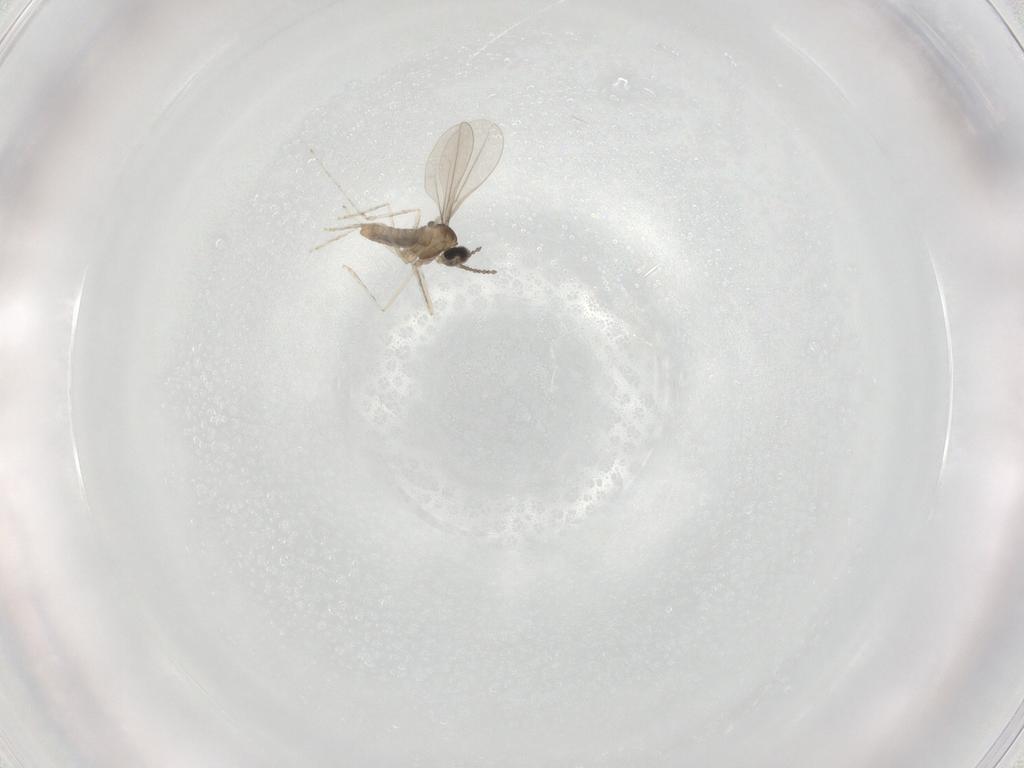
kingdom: Animalia
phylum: Arthropoda
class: Insecta
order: Diptera
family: Cecidomyiidae
